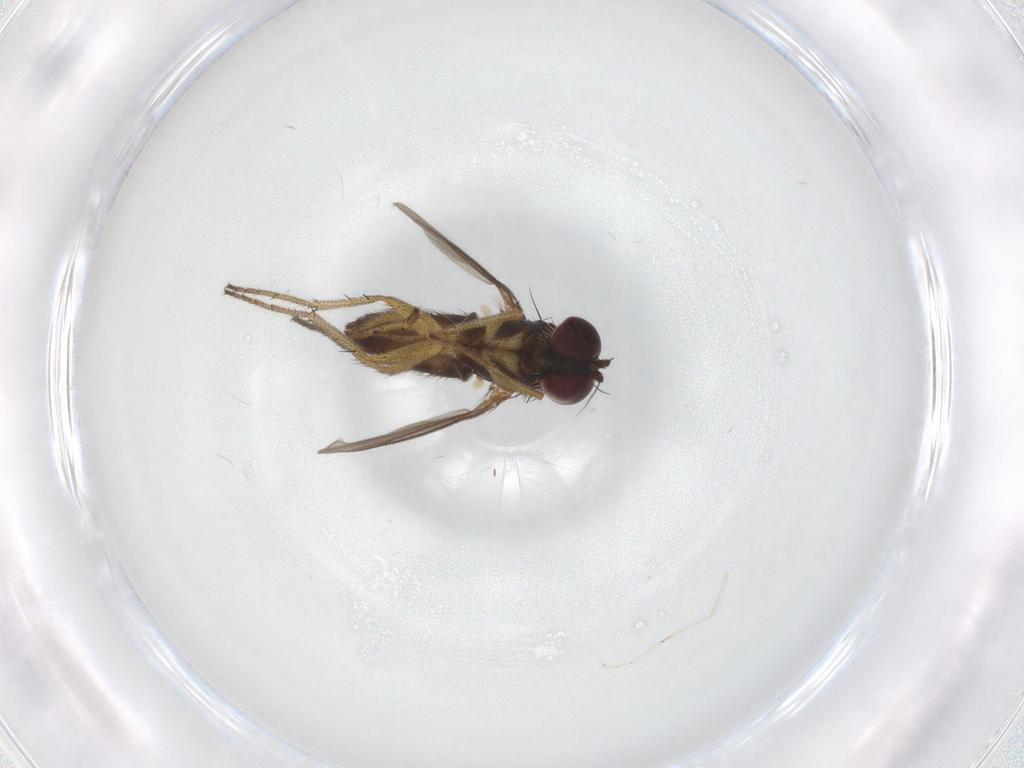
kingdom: Animalia
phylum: Arthropoda
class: Insecta
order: Diptera
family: Dolichopodidae
